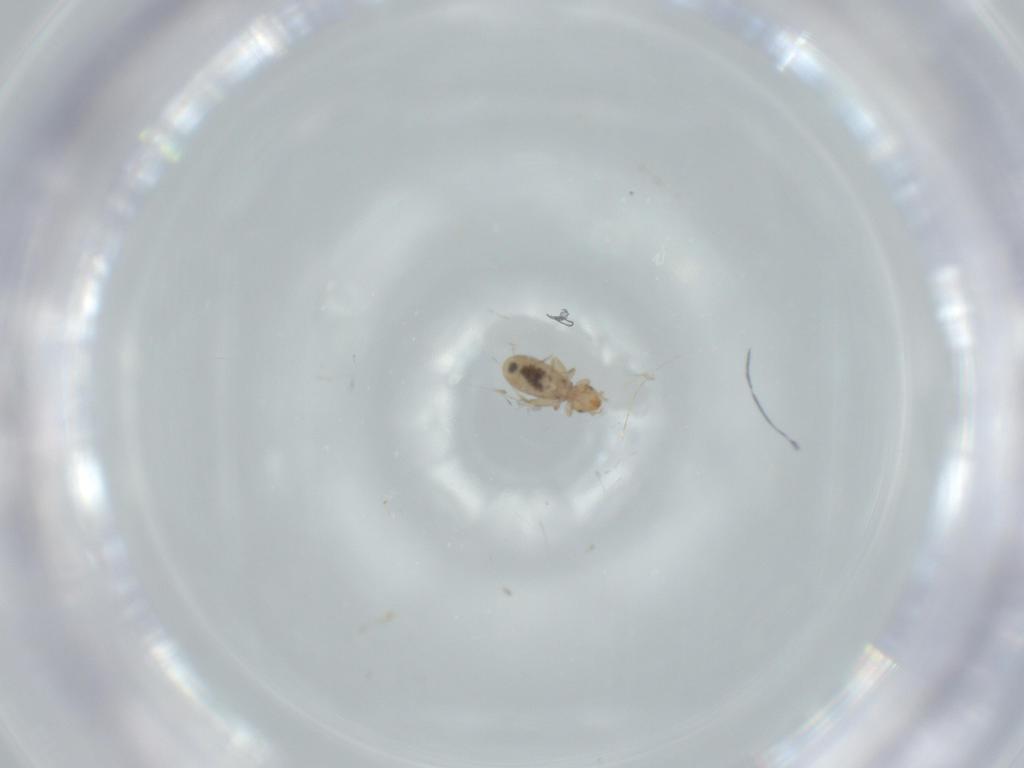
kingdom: Animalia
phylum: Arthropoda
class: Insecta
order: Psocodea
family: Liposcelididae
